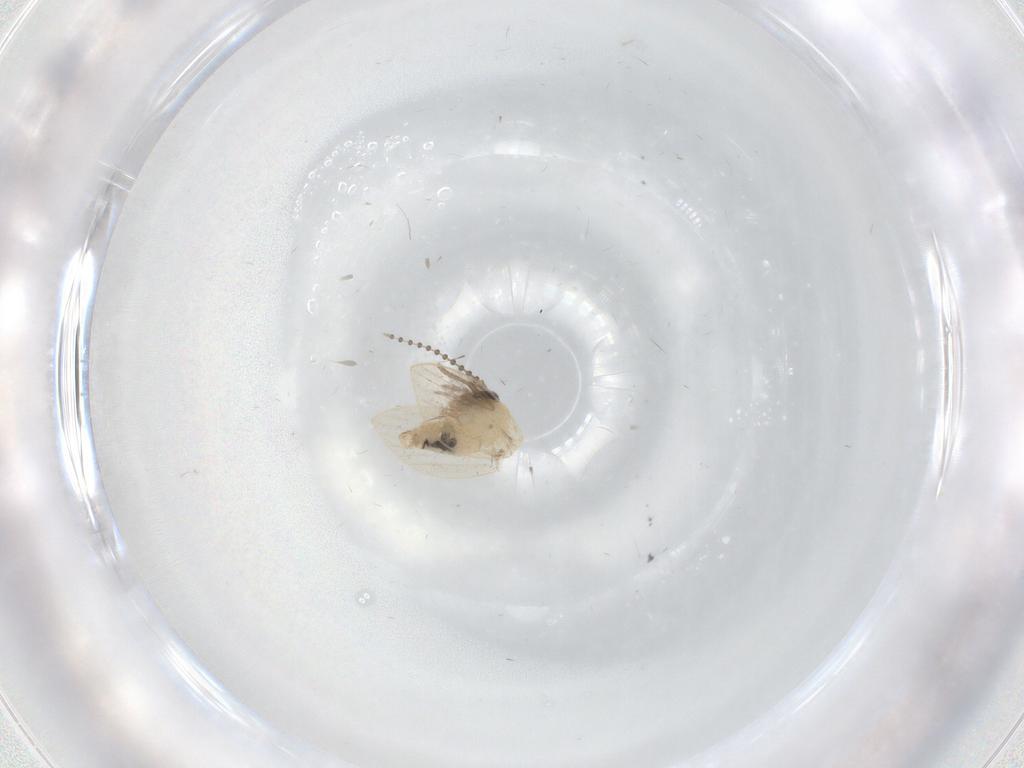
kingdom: Animalia
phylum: Arthropoda
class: Insecta
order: Diptera
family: Psychodidae
